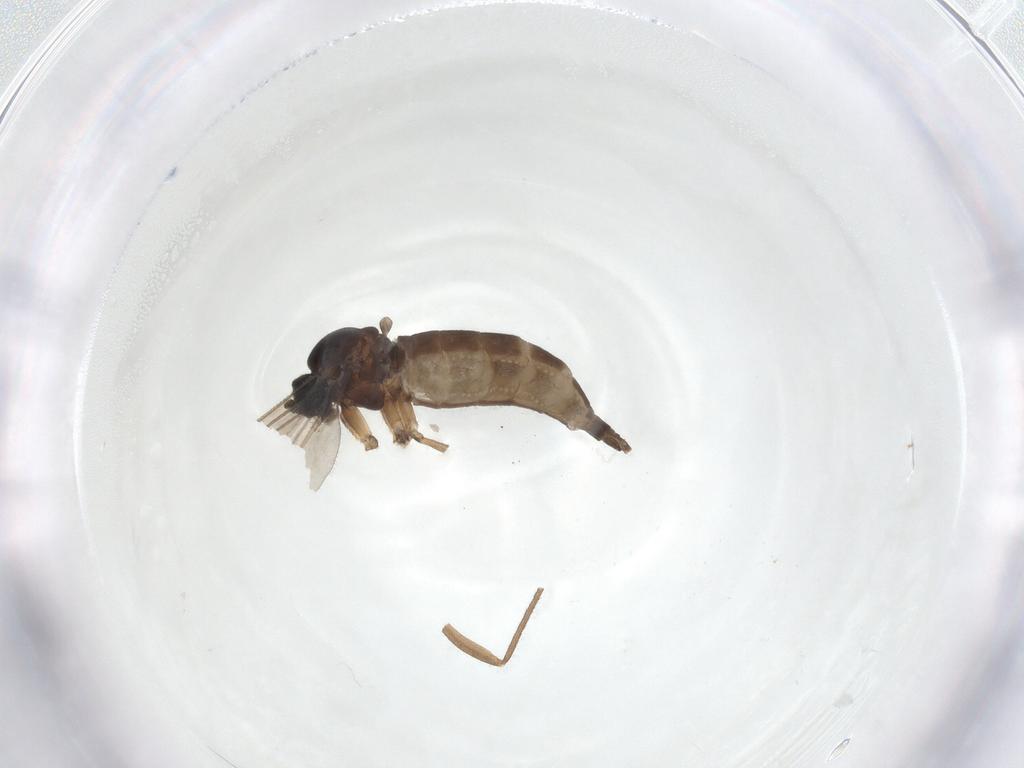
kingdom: Animalia
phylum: Arthropoda
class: Insecta
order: Diptera
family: Sciaridae
